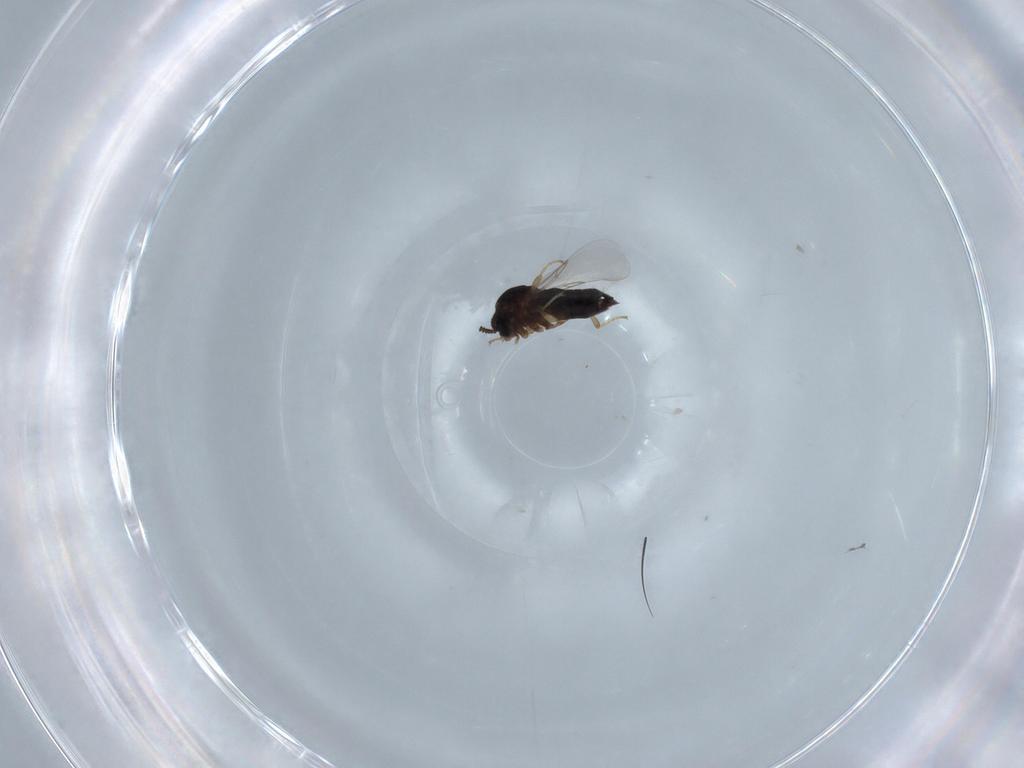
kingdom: Animalia
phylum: Arthropoda
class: Insecta
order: Diptera
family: Scatopsidae
